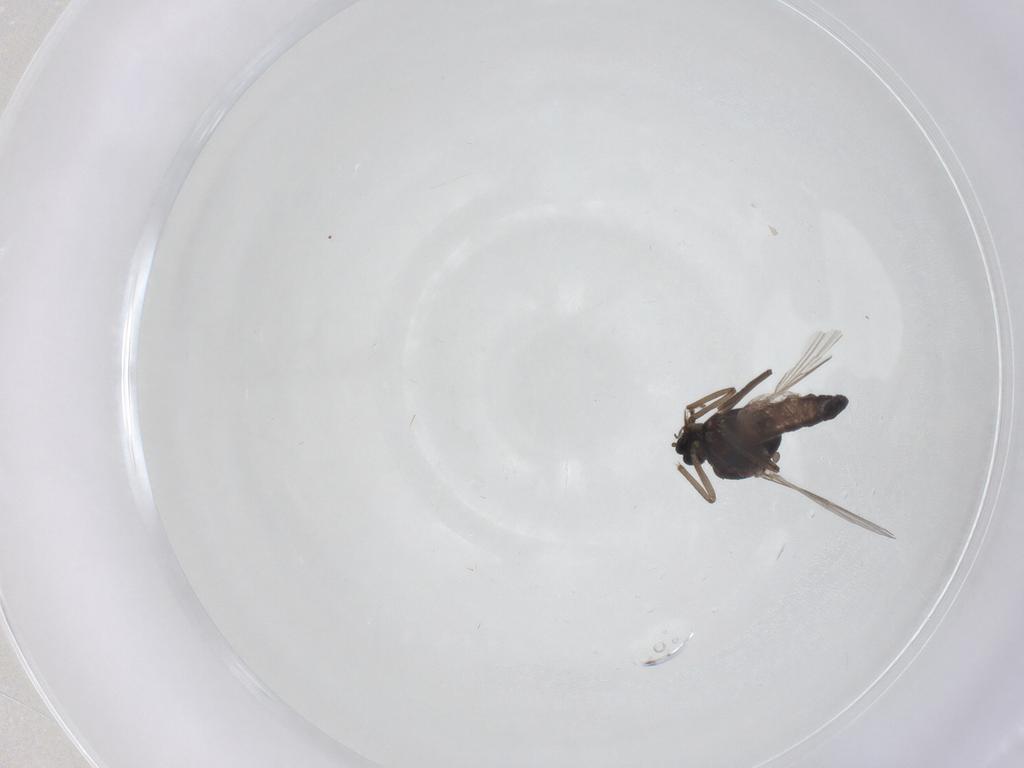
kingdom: Animalia
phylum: Arthropoda
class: Insecta
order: Diptera
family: Ceratopogonidae
